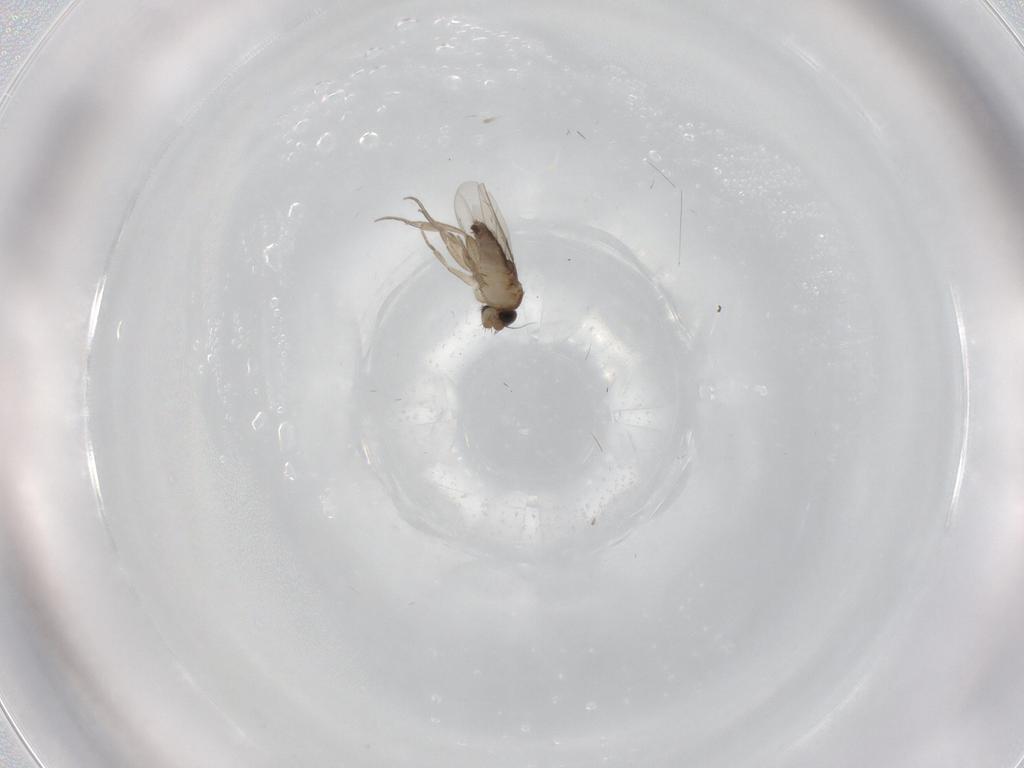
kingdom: Animalia
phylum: Arthropoda
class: Insecta
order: Diptera
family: Phoridae
